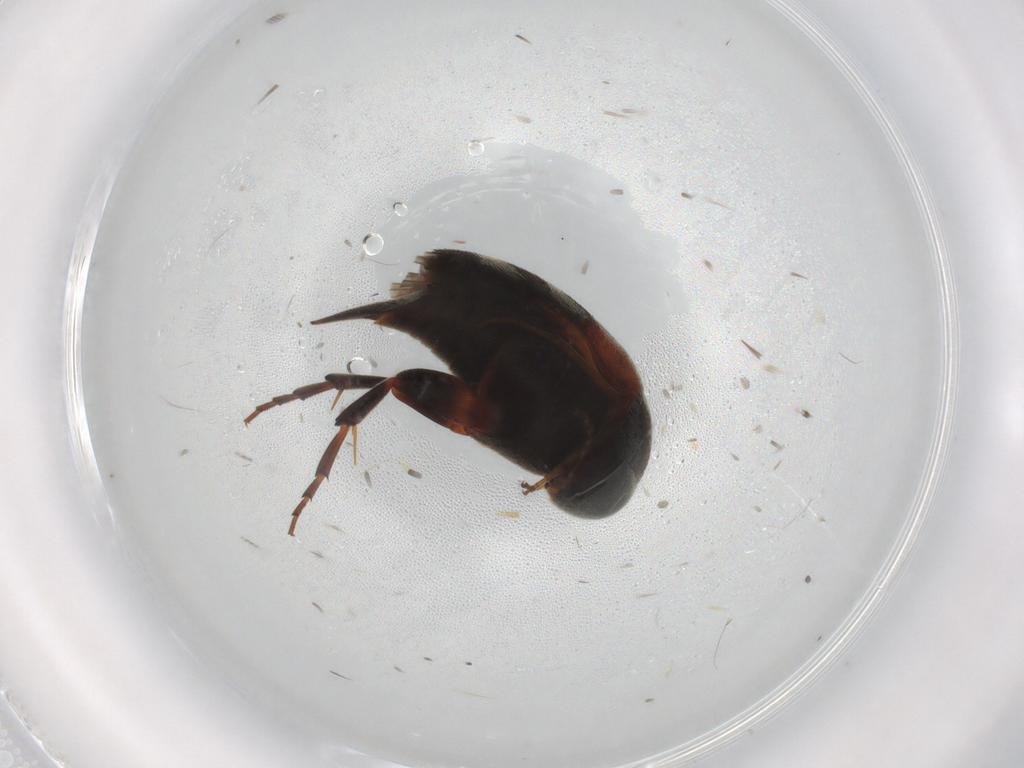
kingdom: Animalia
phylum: Arthropoda
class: Insecta
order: Coleoptera
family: Mordellidae
